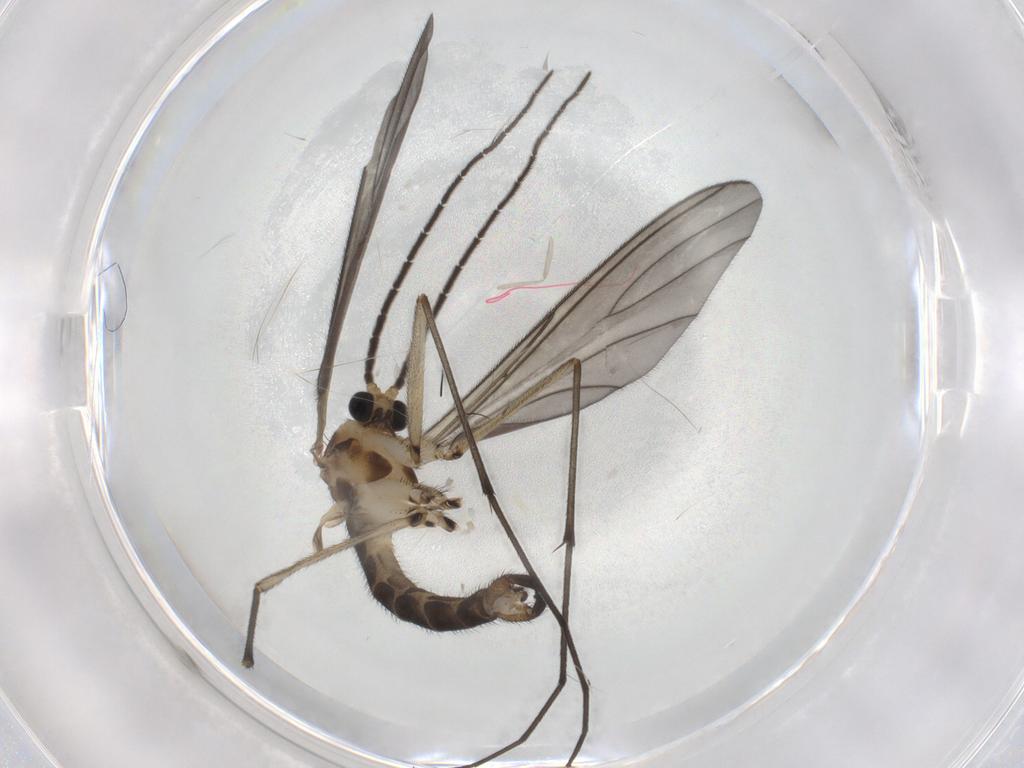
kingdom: Animalia
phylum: Arthropoda
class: Insecta
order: Diptera
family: Sciaridae
